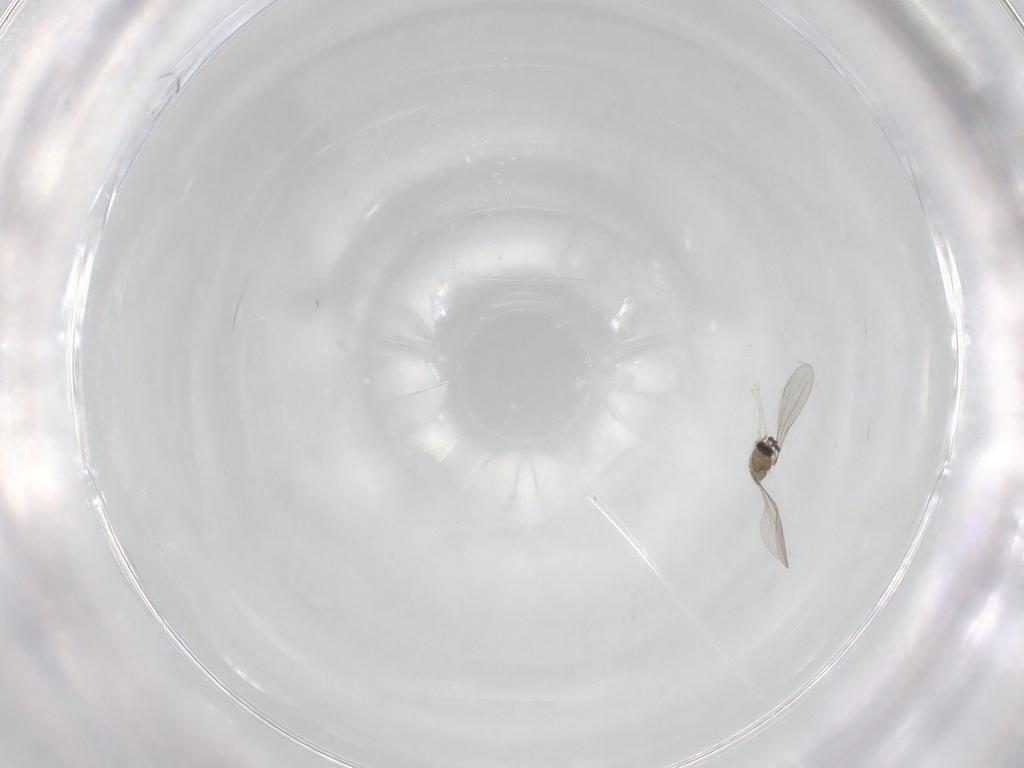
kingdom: Animalia
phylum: Arthropoda
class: Insecta
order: Diptera
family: Cecidomyiidae
